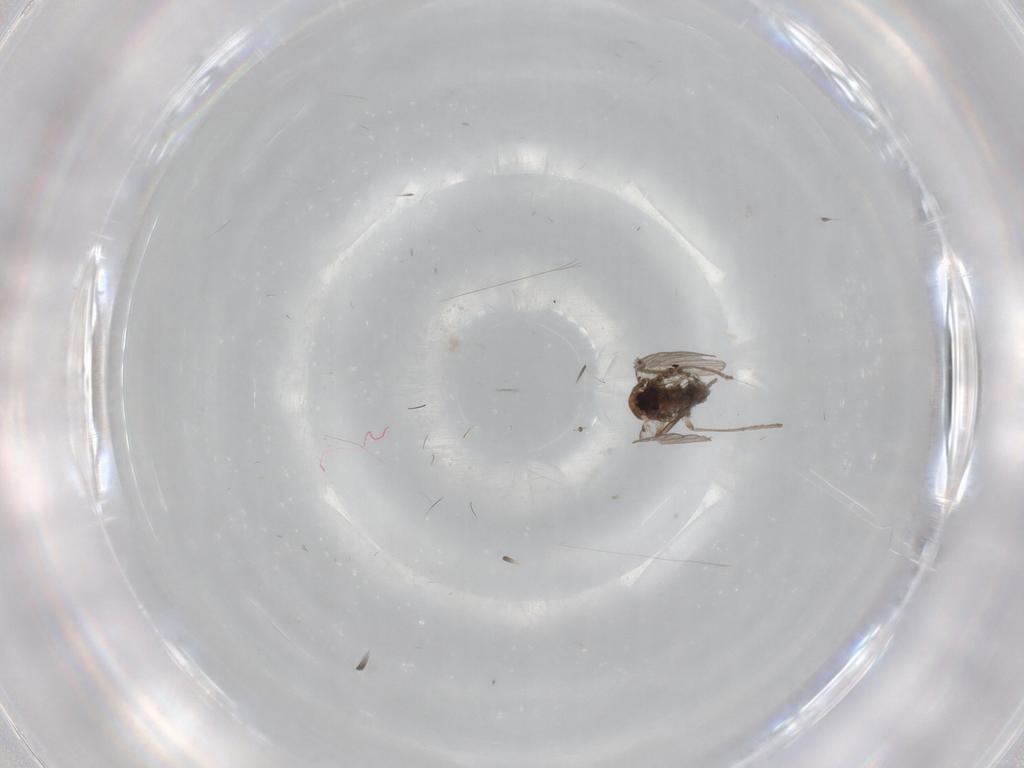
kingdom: Animalia
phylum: Arthropoda
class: Insecta
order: Diptera
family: Psychodidae
